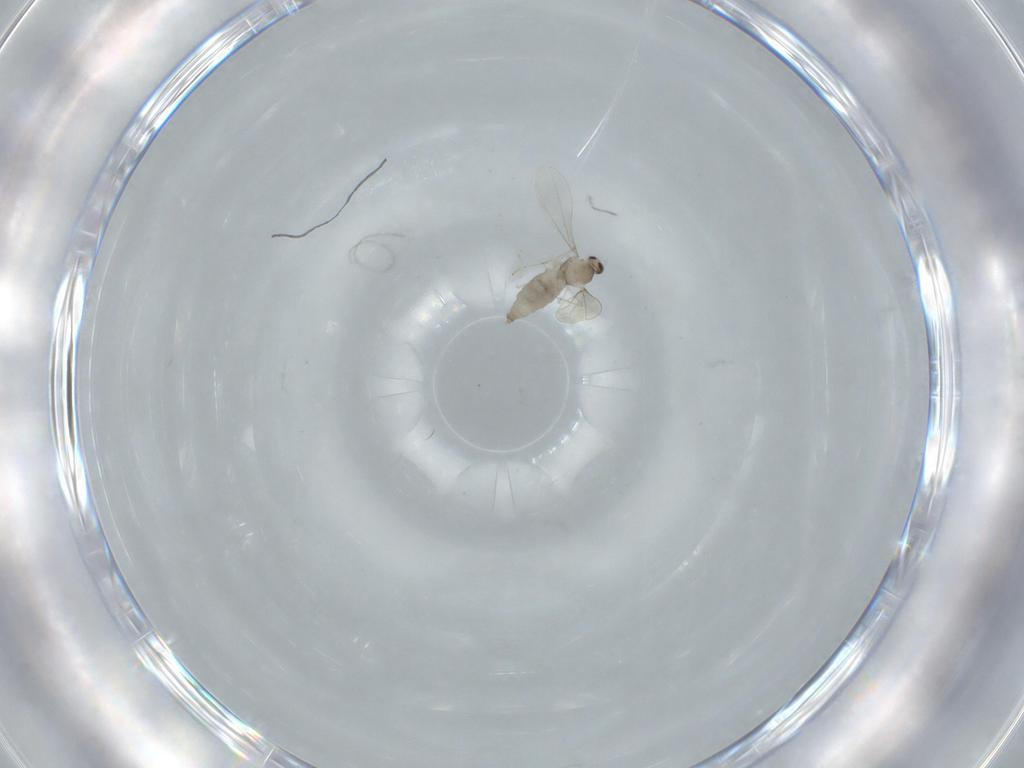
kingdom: Animalia
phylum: Arthropoda
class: Insecta
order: Diptera
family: Cecidomyiidae
